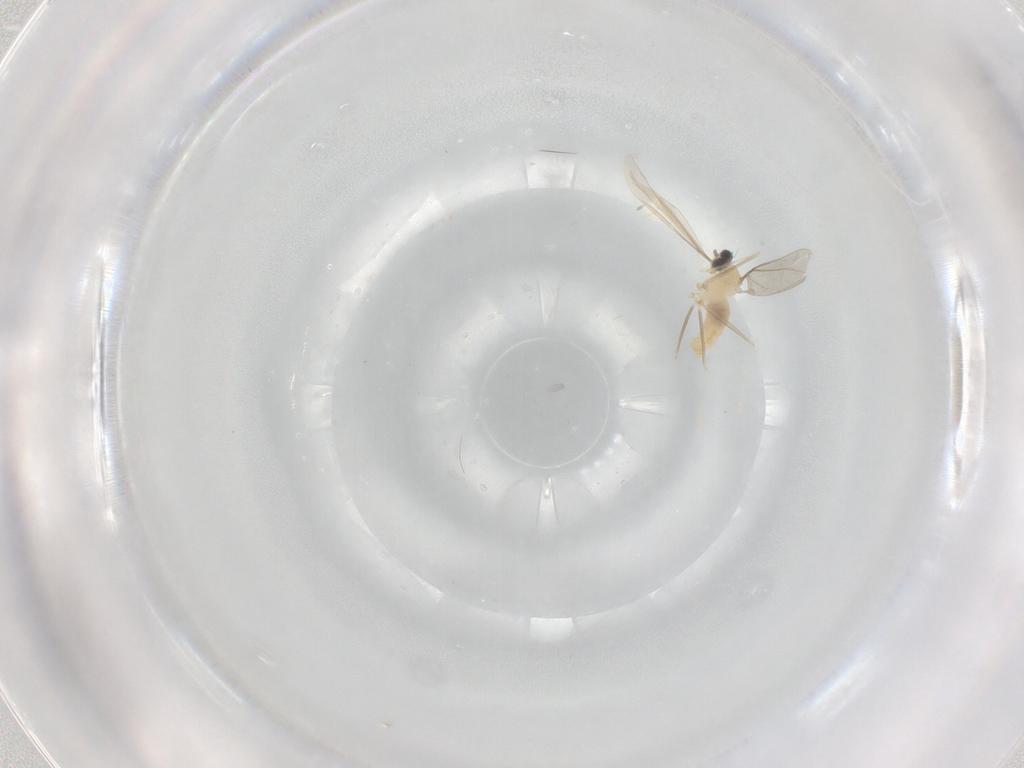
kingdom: Animalia
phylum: Arthropoda
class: Insecta
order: Diptera
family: Cecidomyiidae
